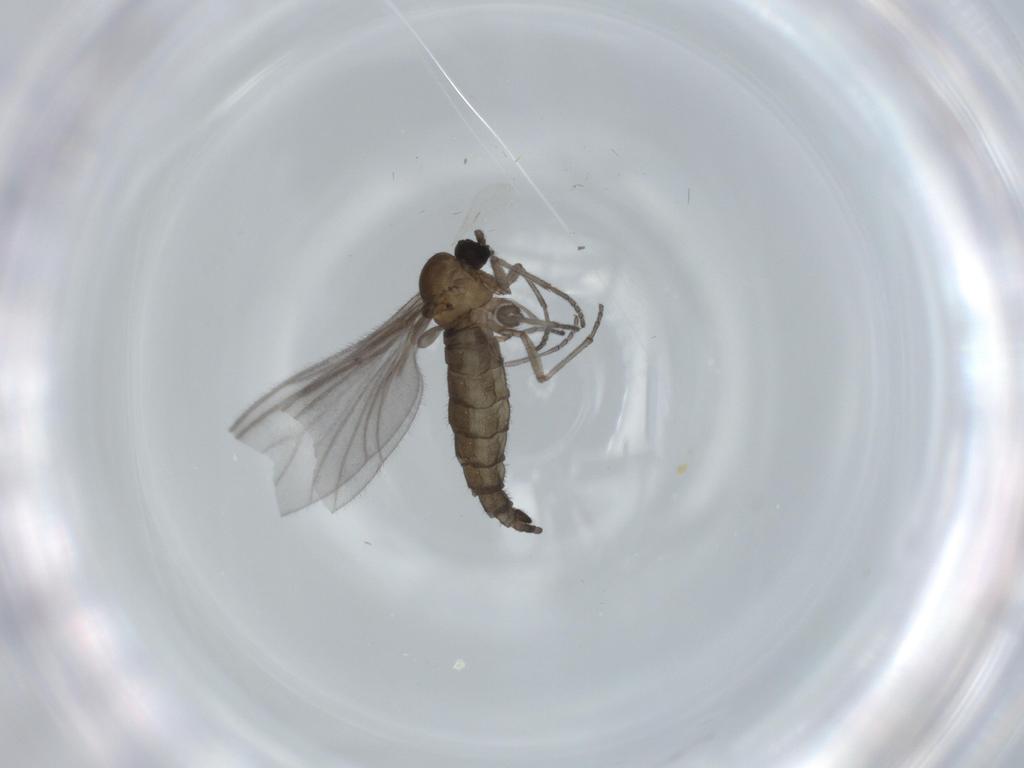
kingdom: Animalia
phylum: Arthropoda
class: Insecta
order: Diptera
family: Sciaridae
